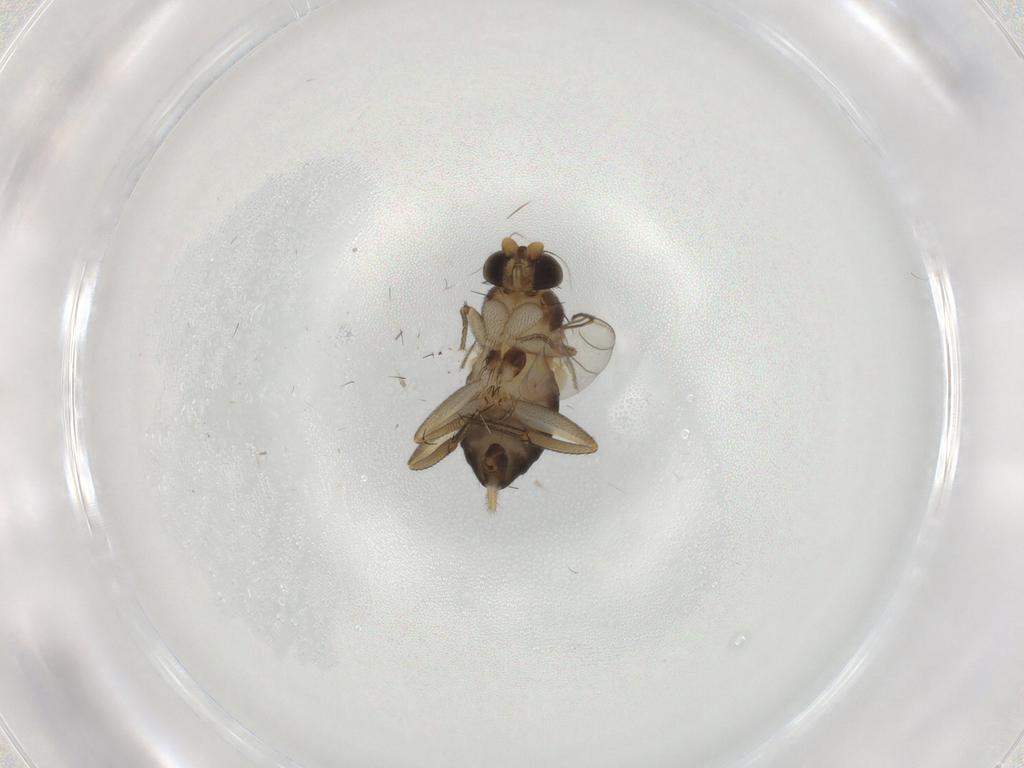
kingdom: Animalia
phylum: Arthropoda
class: Insecta
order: Diptera
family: Phoridae
